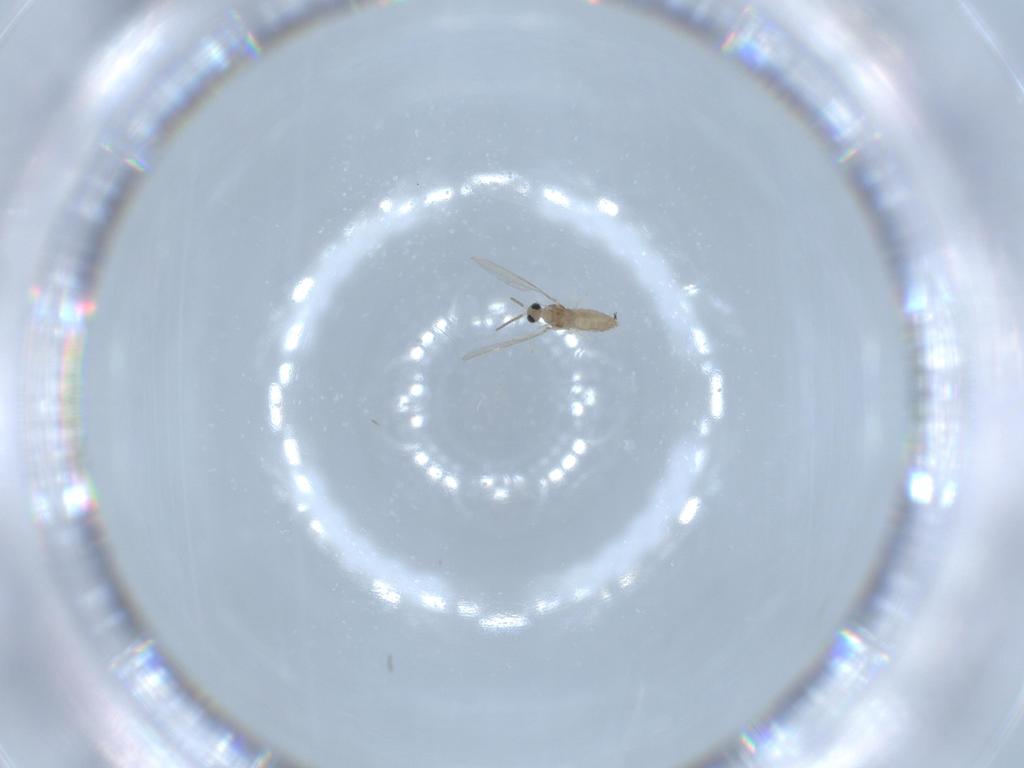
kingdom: Animalia
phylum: Arthropoda
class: Insecta
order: Diptera
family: Cecidomyiidae
